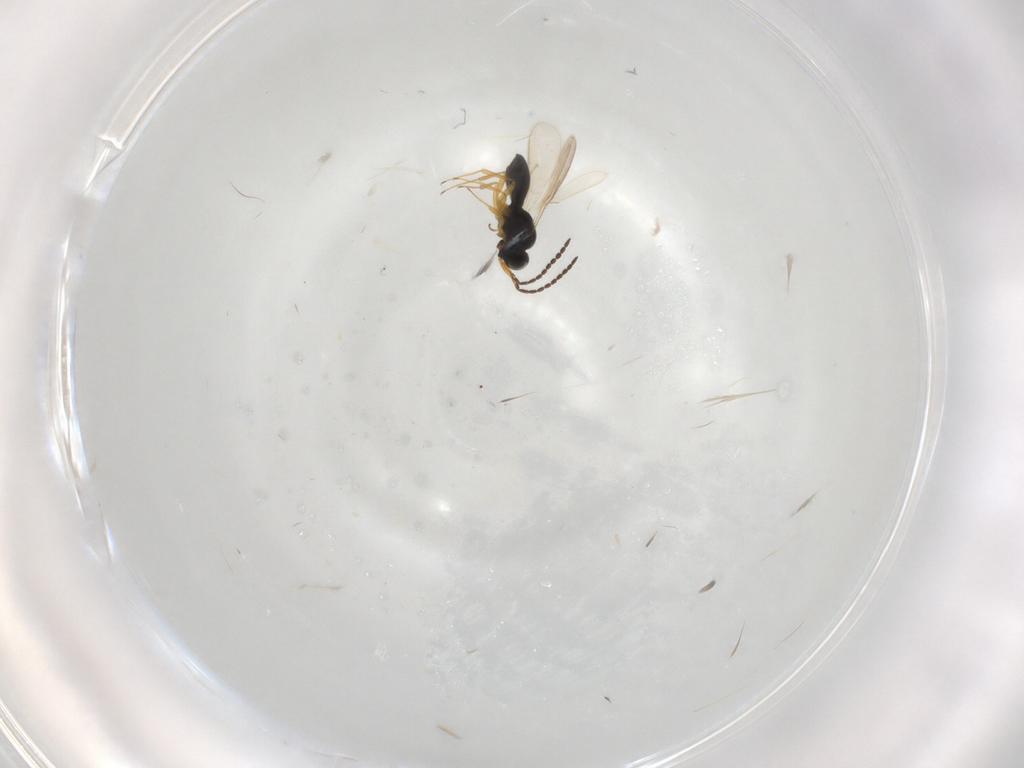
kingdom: Animalia
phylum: Arthropoda
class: Insecta
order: Hymenoptera
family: Scelionidae
